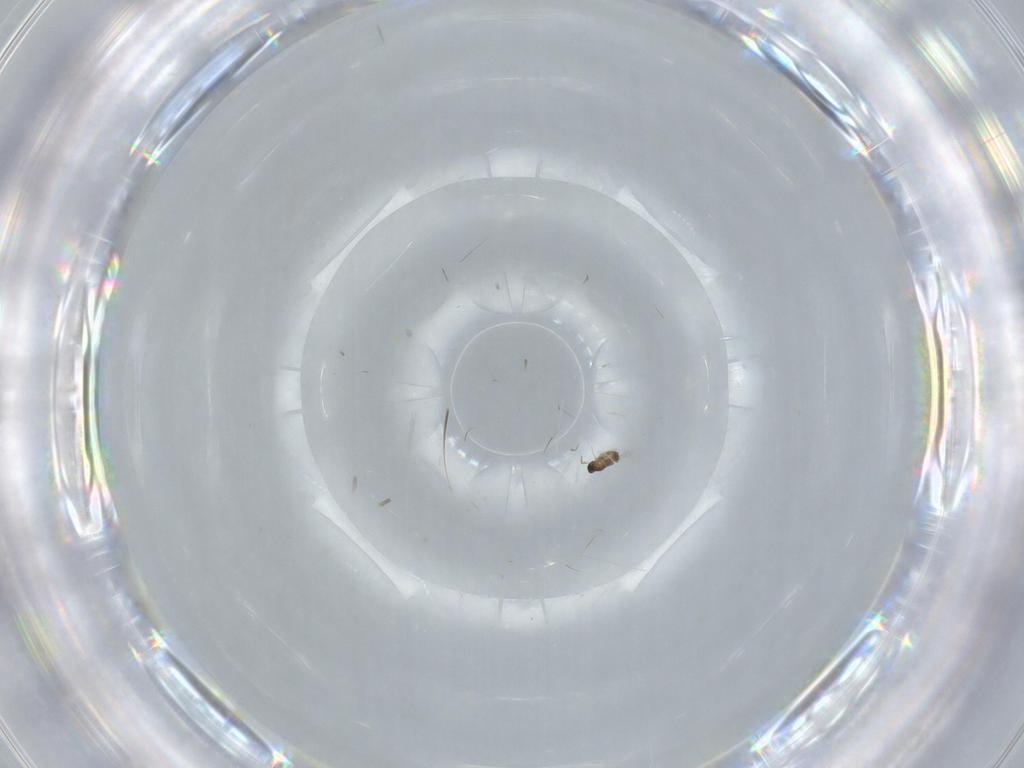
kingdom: Animalia
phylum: Arthropoda
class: Insecta
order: Hymenoptera
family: Mymaridae
